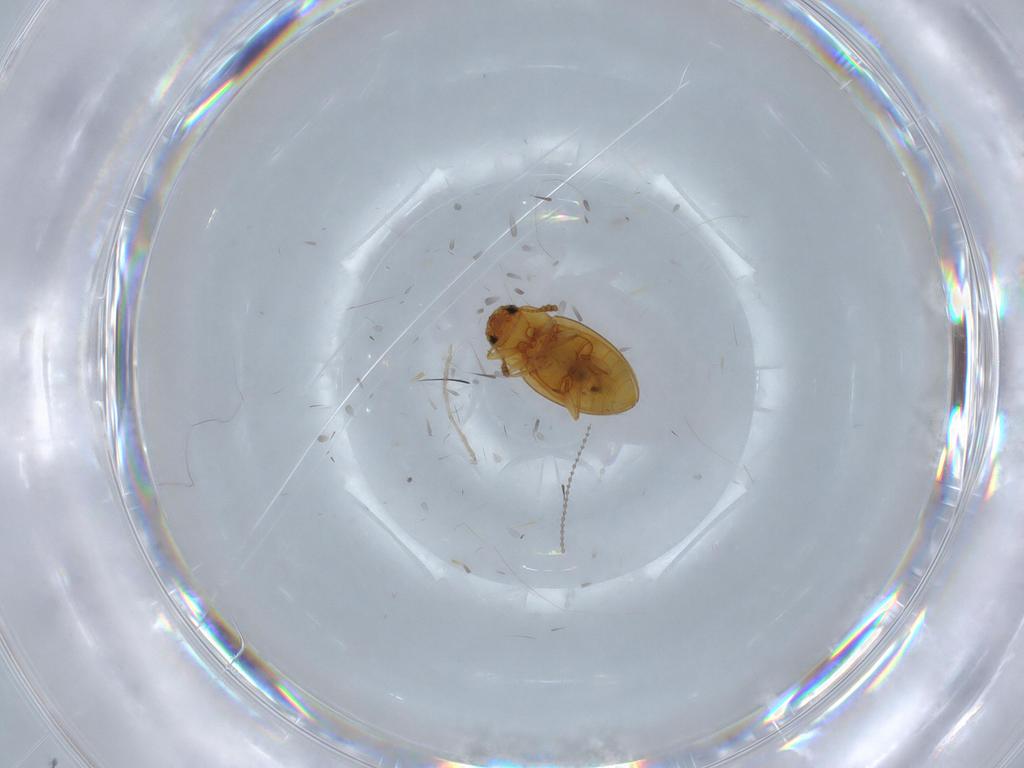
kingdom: Animalia
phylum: Arthropoda
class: Insecta
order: Coleoptera
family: Erotylidae
